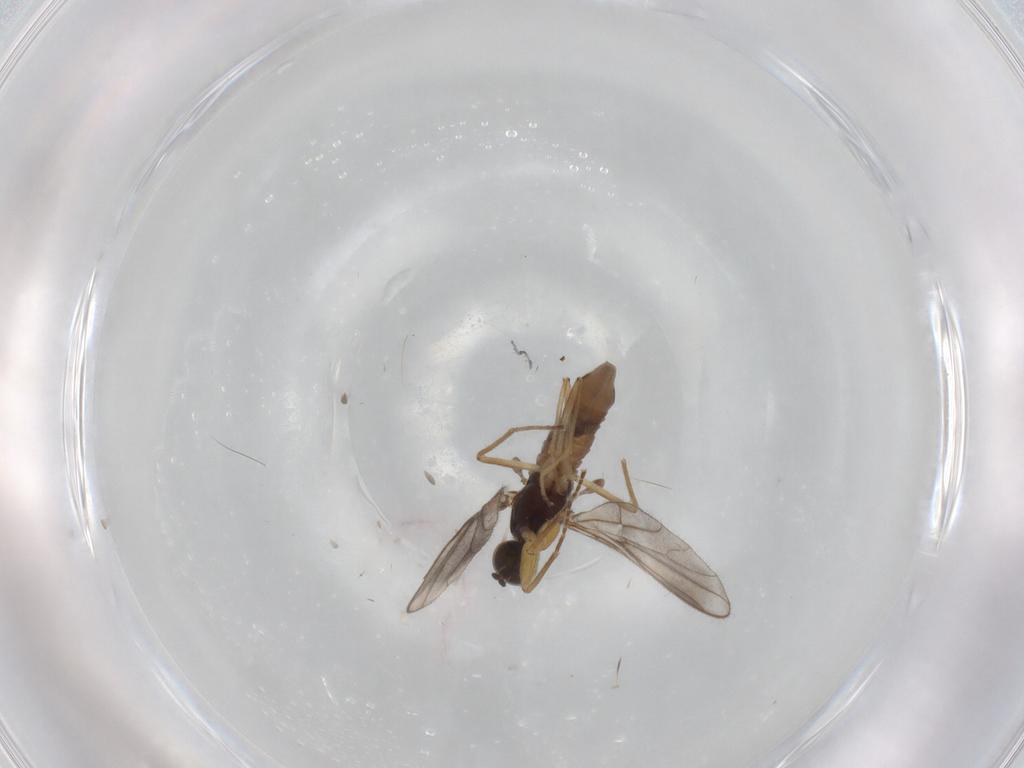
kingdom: Animalia
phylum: Arthropoda
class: Insecta
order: Diptera
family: Empididae
